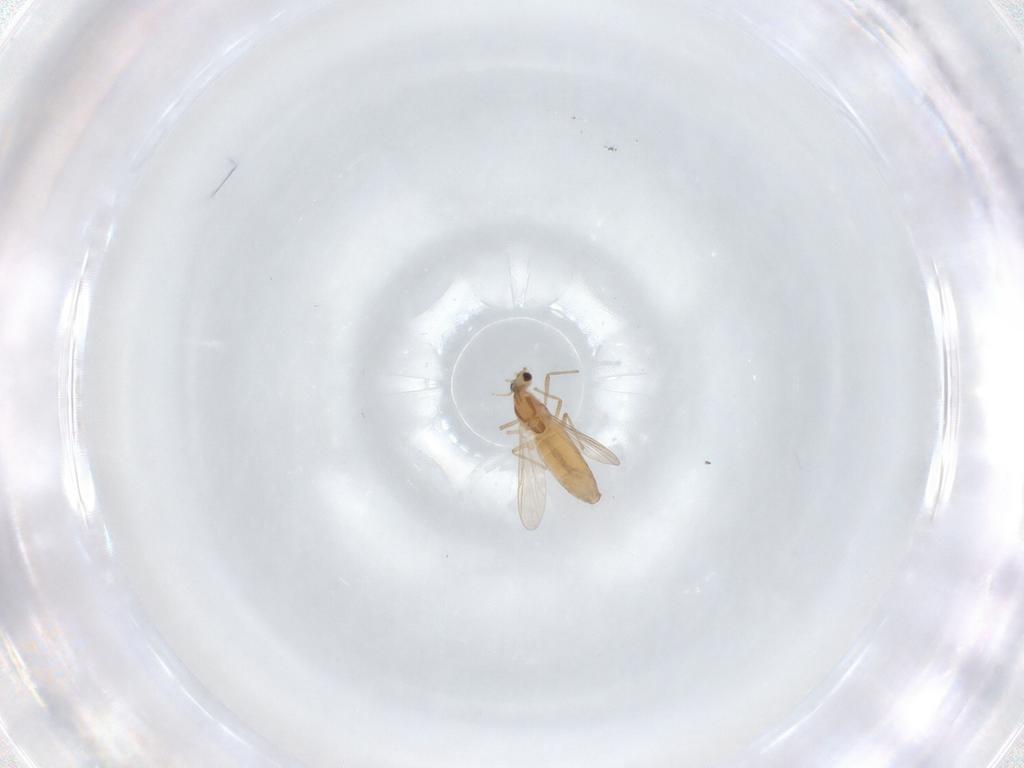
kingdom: Animalia
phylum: Arthropoda
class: Insecta
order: Diptera
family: Chironomidae
